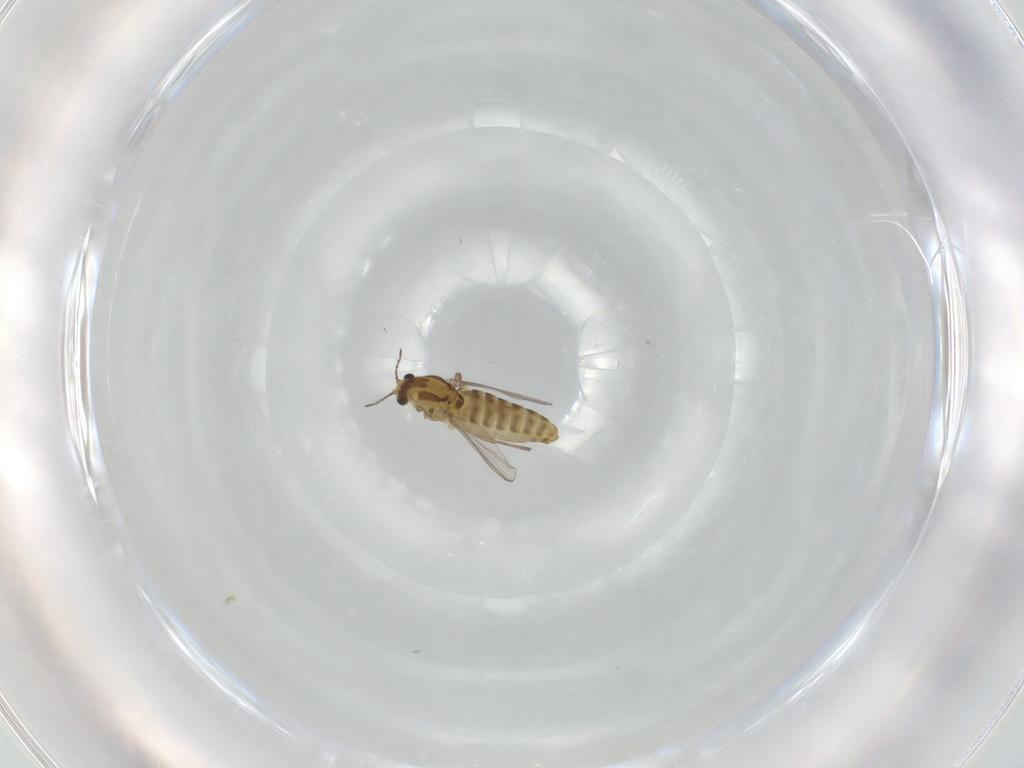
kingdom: Animalia
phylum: Arthropoda
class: Insecta
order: Diptera
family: Chironomidae
